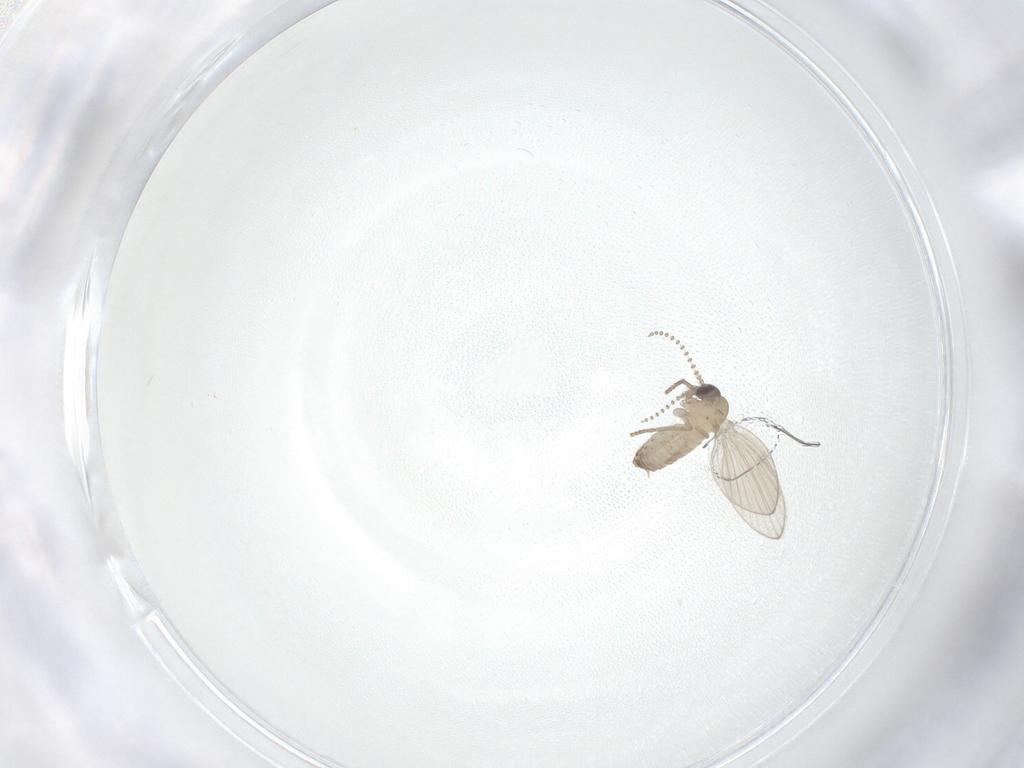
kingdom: Animalia
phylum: Arthropoda
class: Insecta
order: Diptera
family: Psychodidae
